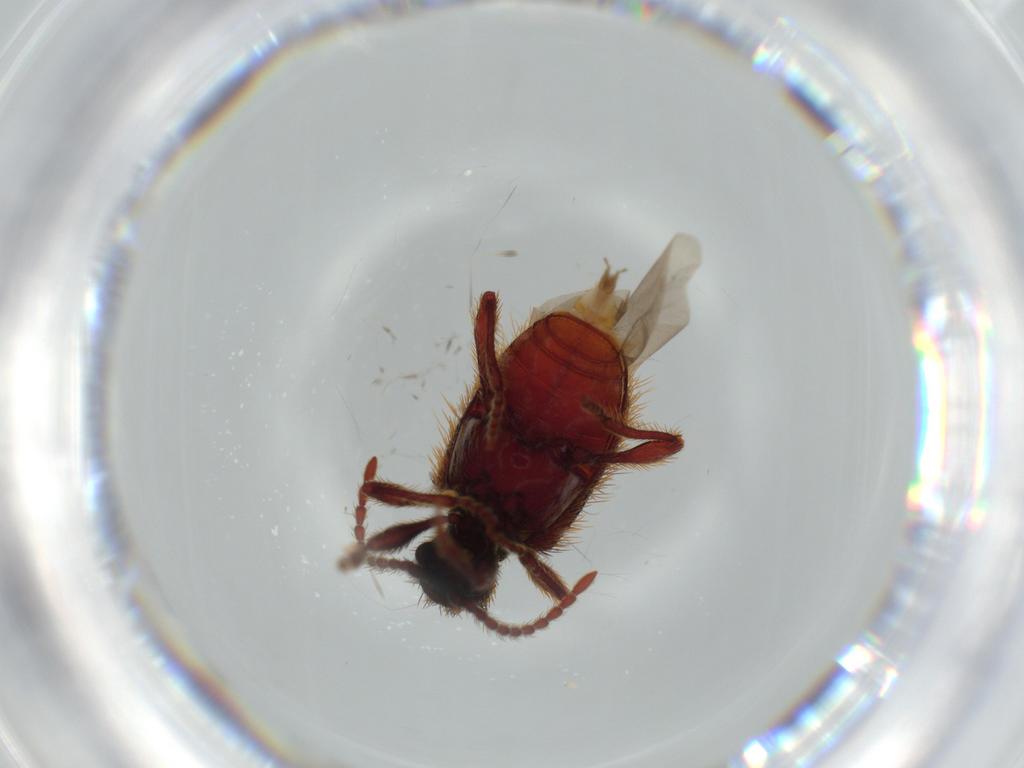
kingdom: Animalia
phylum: Arthropoda
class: Insecta
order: Coleoptera
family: Ptinidae
